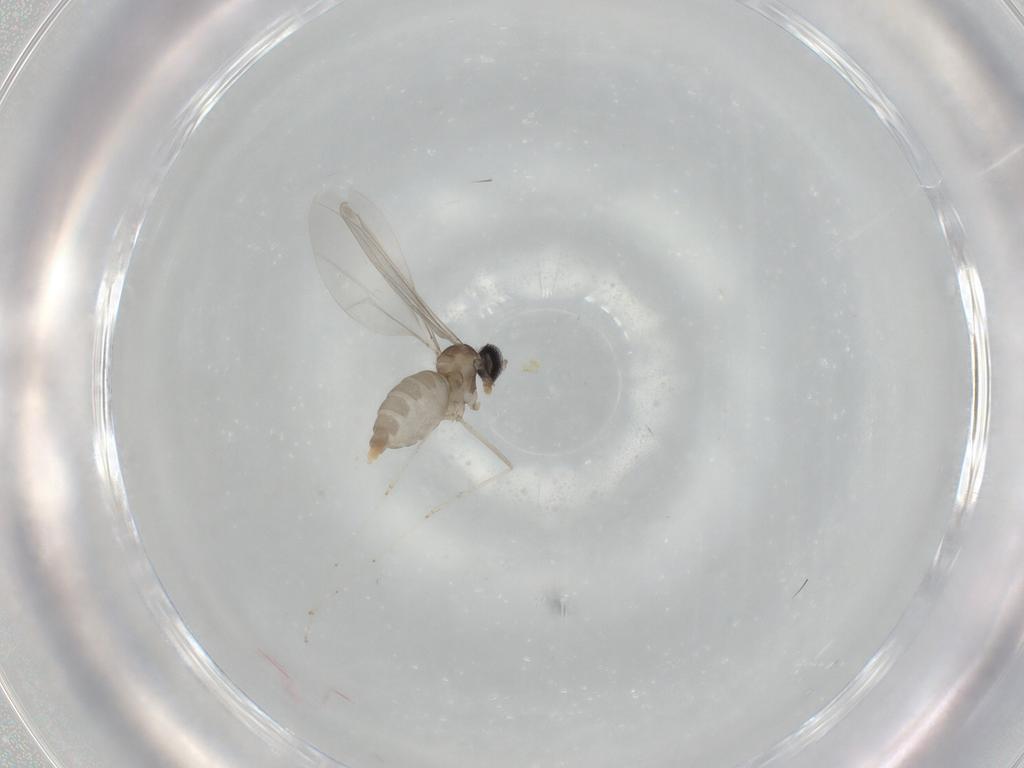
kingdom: Animalia
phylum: Arthropoda
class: Insecta
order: Diptera
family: Cecidomyiidae
